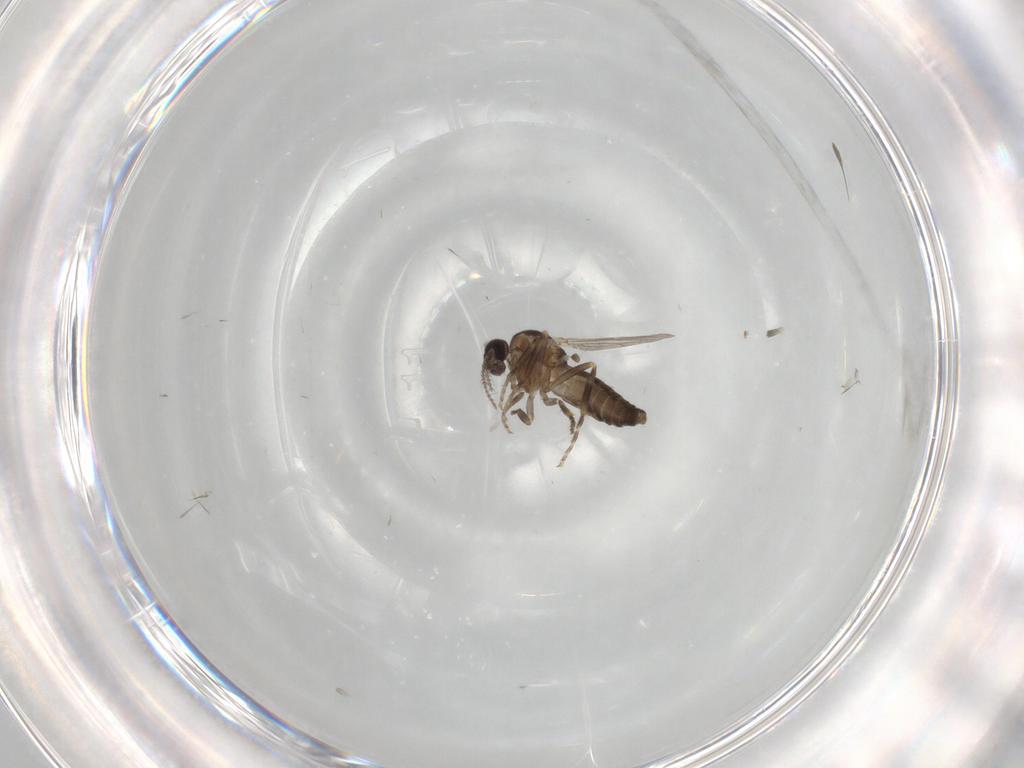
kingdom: Animalia
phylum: Arthropoda
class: Insecta
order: Diptera
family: Ceratopogonidae
